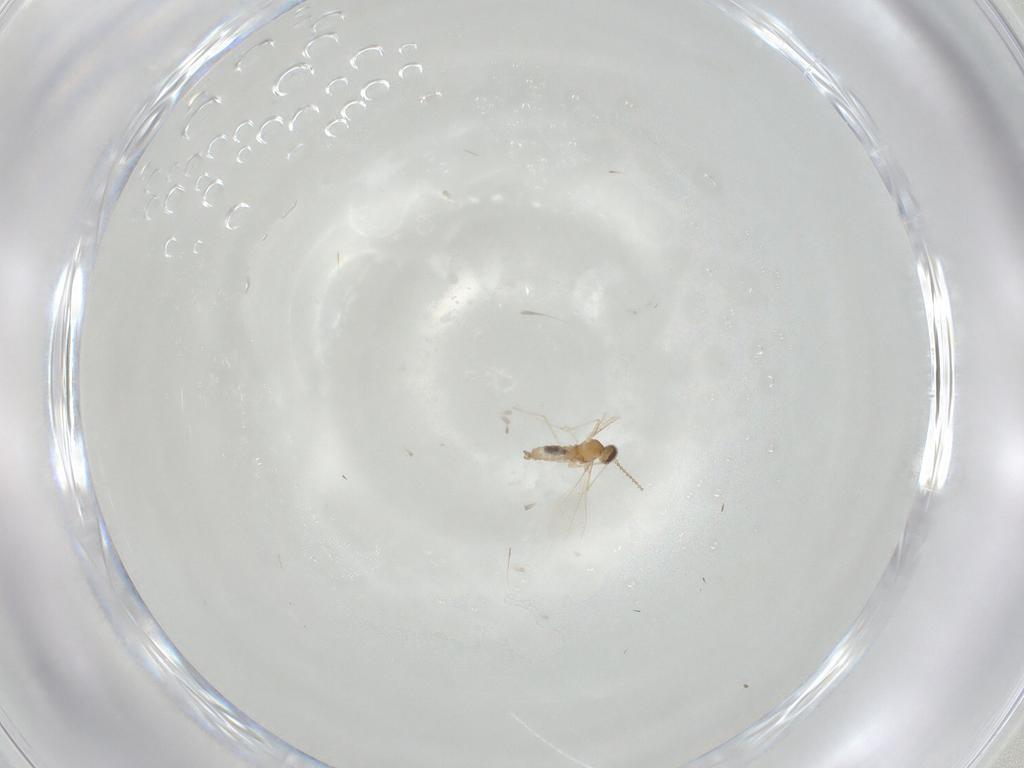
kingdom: Animalia
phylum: Arthropoda
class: Insecta
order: Diptera
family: Cecidomyiidae
